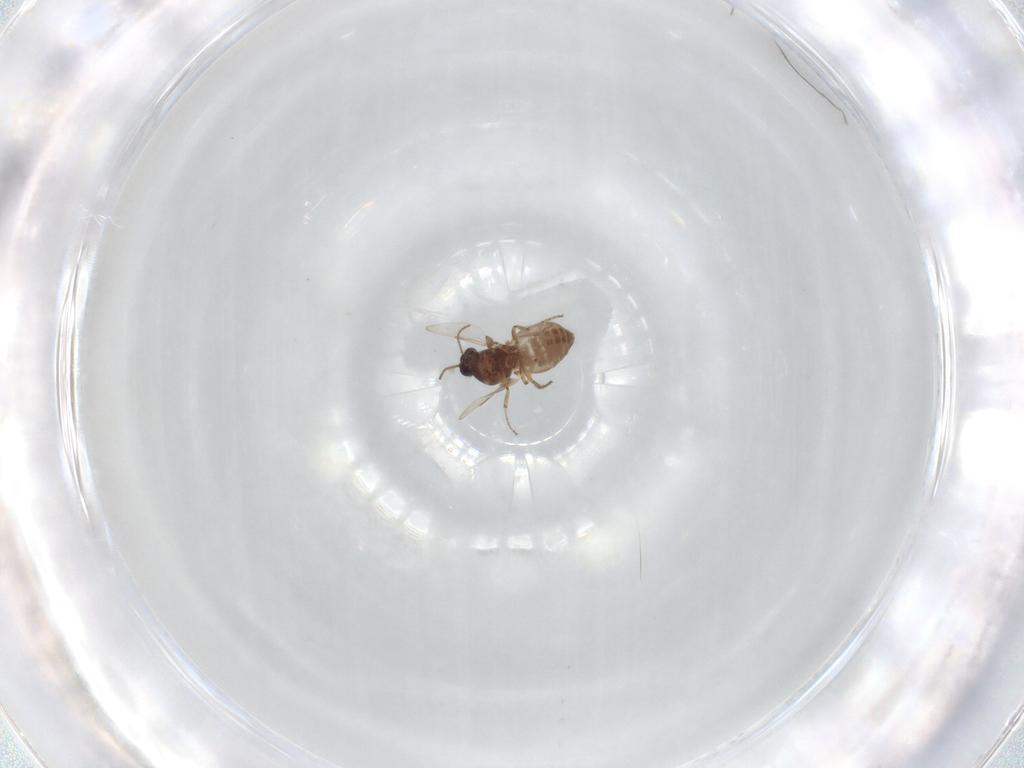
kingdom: Animalia
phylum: Arthropoda
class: Insecta
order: Diptera
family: Ceratopogonidae
